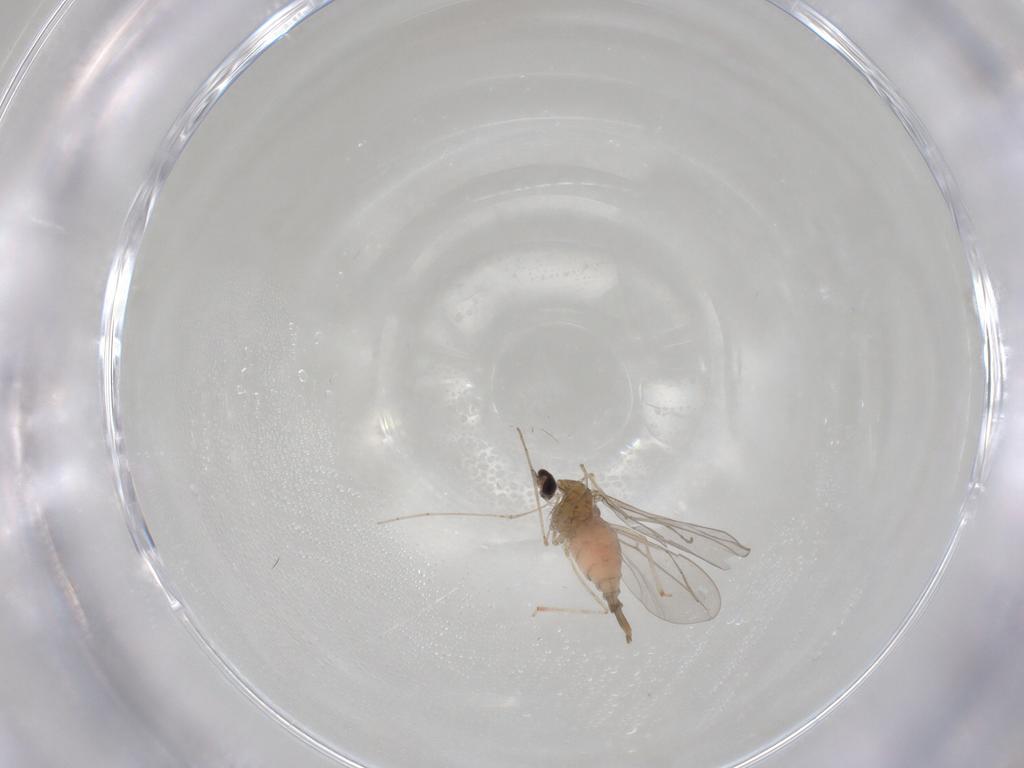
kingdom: Animalia
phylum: Arthropoda
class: Insecta
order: Diptera
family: Cecidomyiidae
